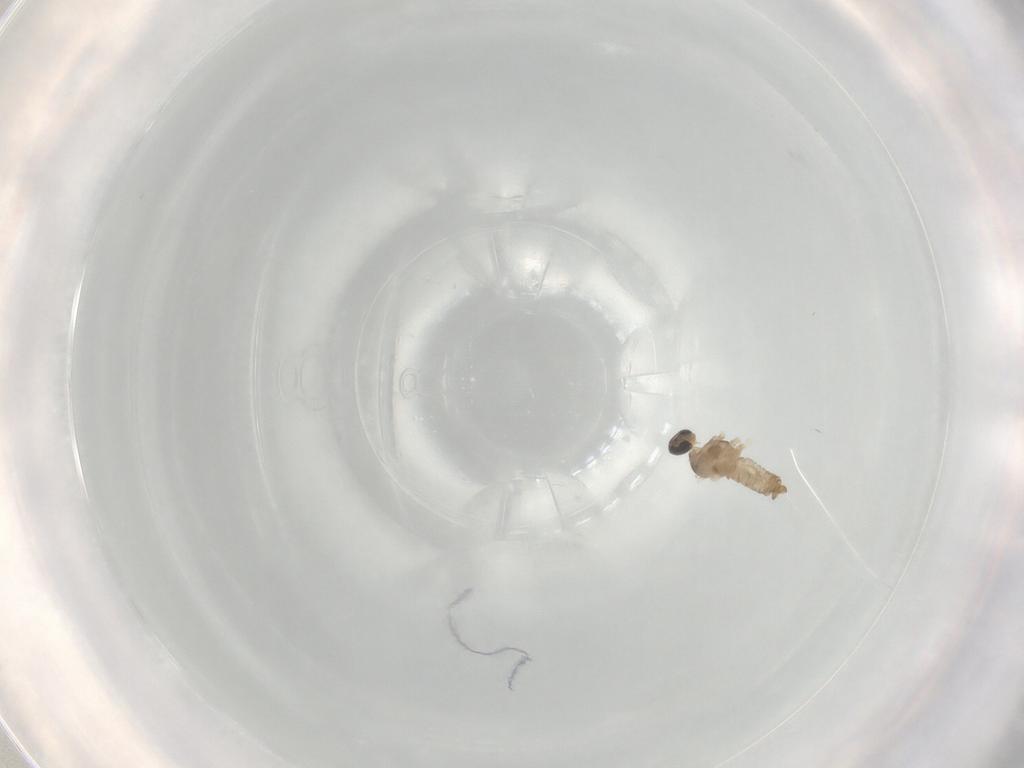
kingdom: Animalia
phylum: Arthropoda
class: Insecta
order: Diptera
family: Cecidomyiidae
